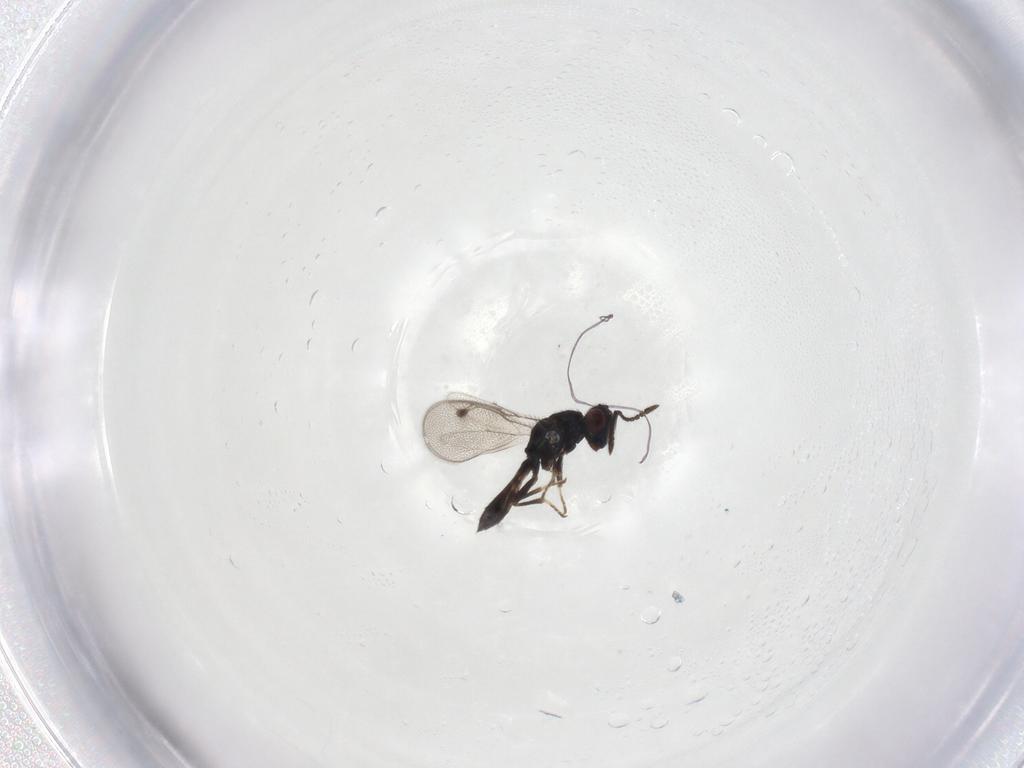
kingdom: Animalia
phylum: Arthropoda
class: Insecta
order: Hymenoptera
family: Pteromalidae
